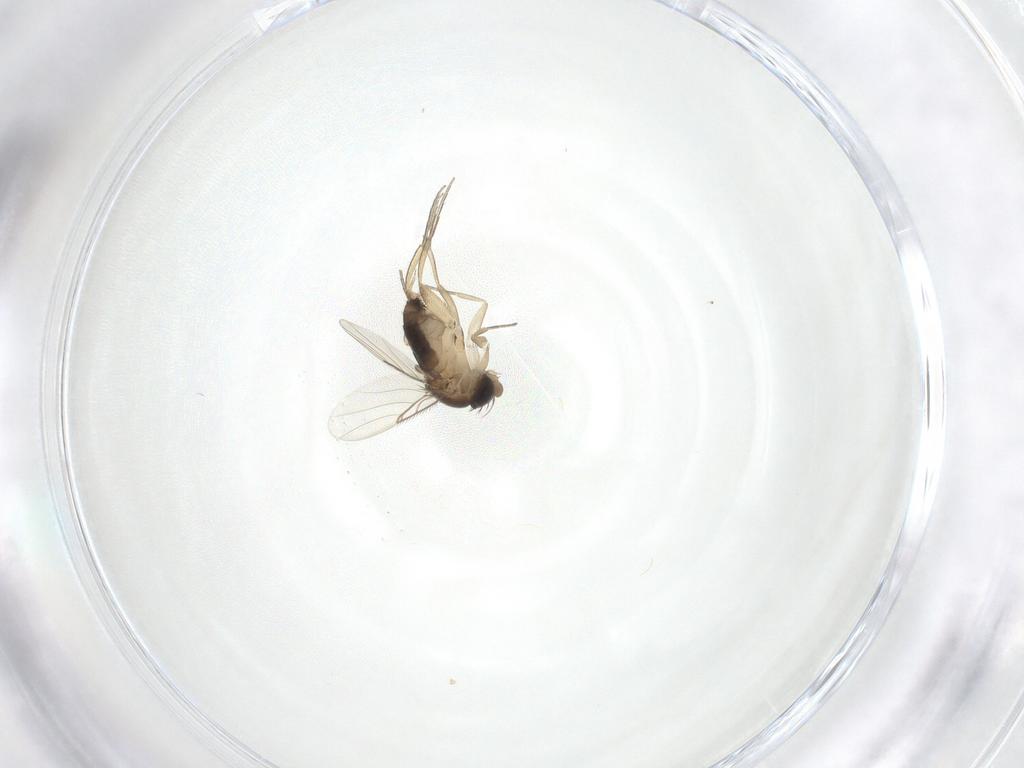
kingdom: Animalia
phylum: Arthropoda
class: Insecta
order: Diptera
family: Phoridae
